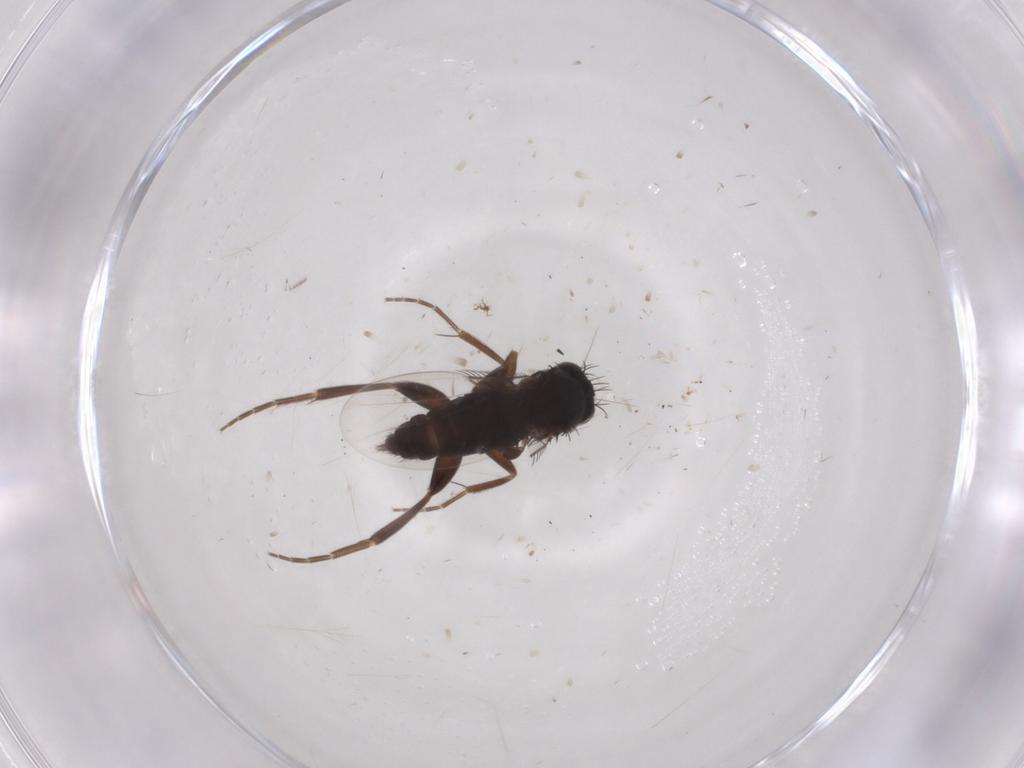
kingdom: Animalia
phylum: Arthropoda
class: Insecta
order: Diptera
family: Phoridae
